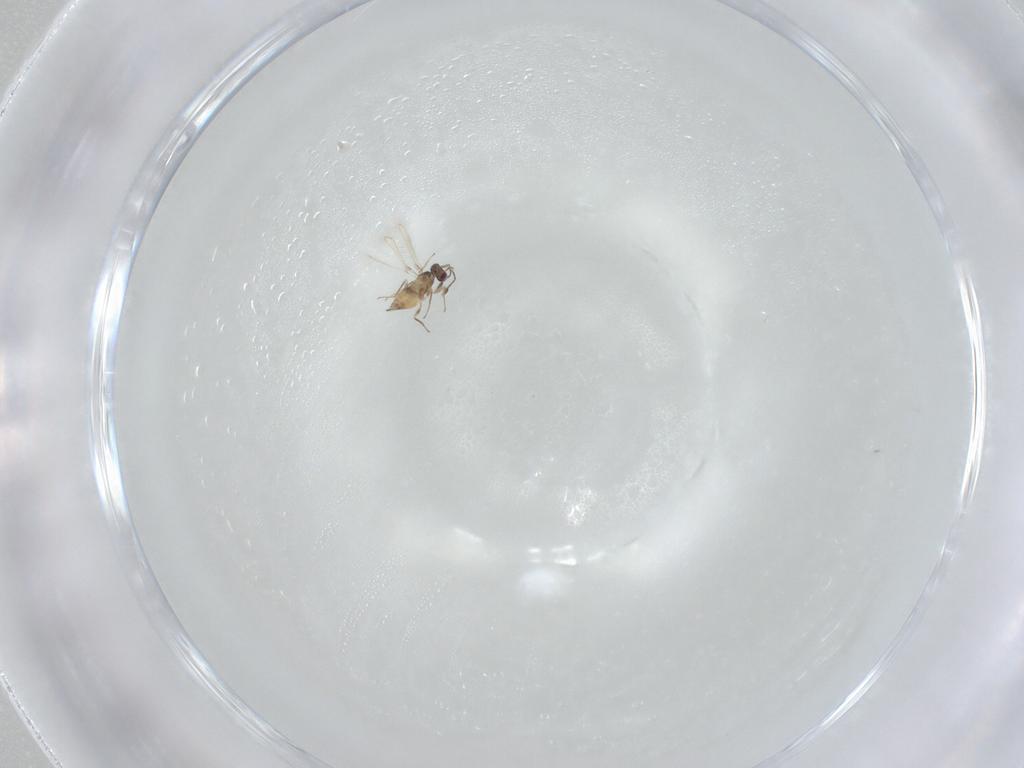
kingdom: Animalia
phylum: Arthropoda
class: Insecta
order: Hymenoptera
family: Mymaridae
